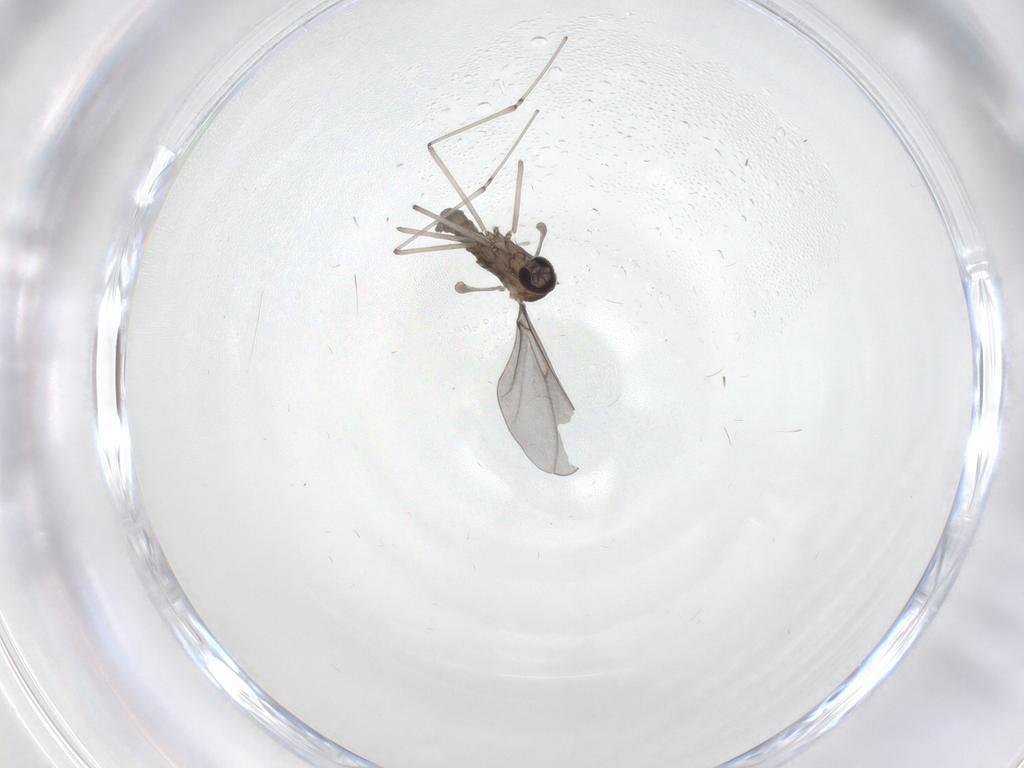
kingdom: Animalia
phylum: Arthropoda
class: Insecta
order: Diptera
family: Cecidomyiidae
